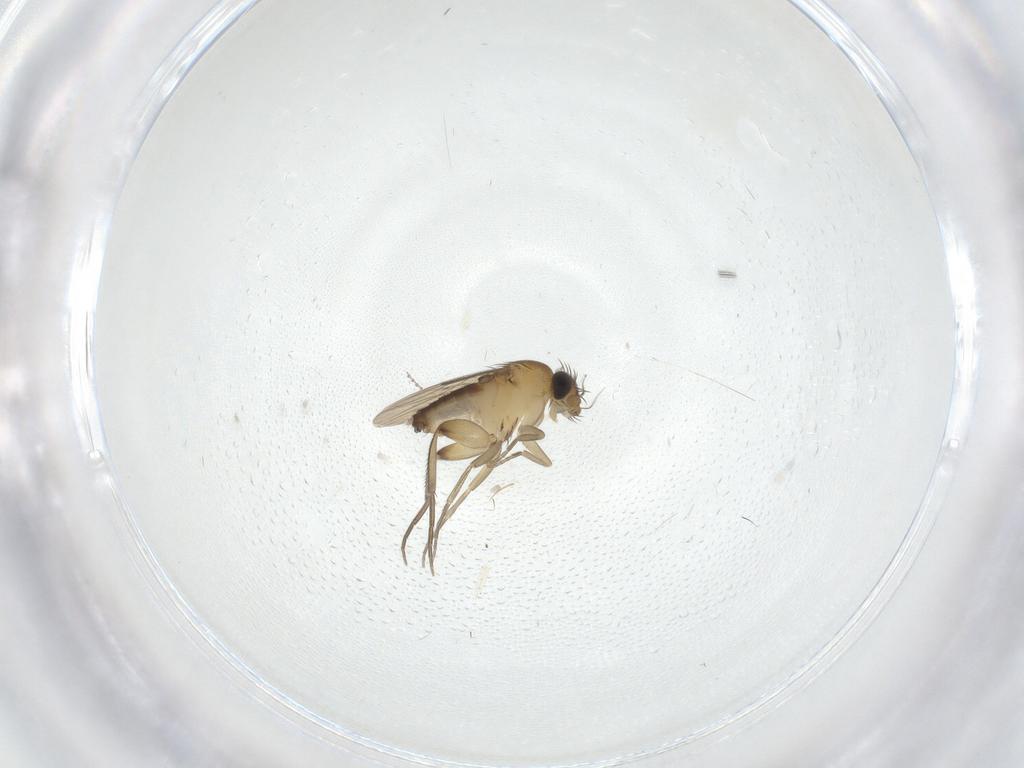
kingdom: Animalia
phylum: Arthropoda
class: Insecta
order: Diptera
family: Phoridae
